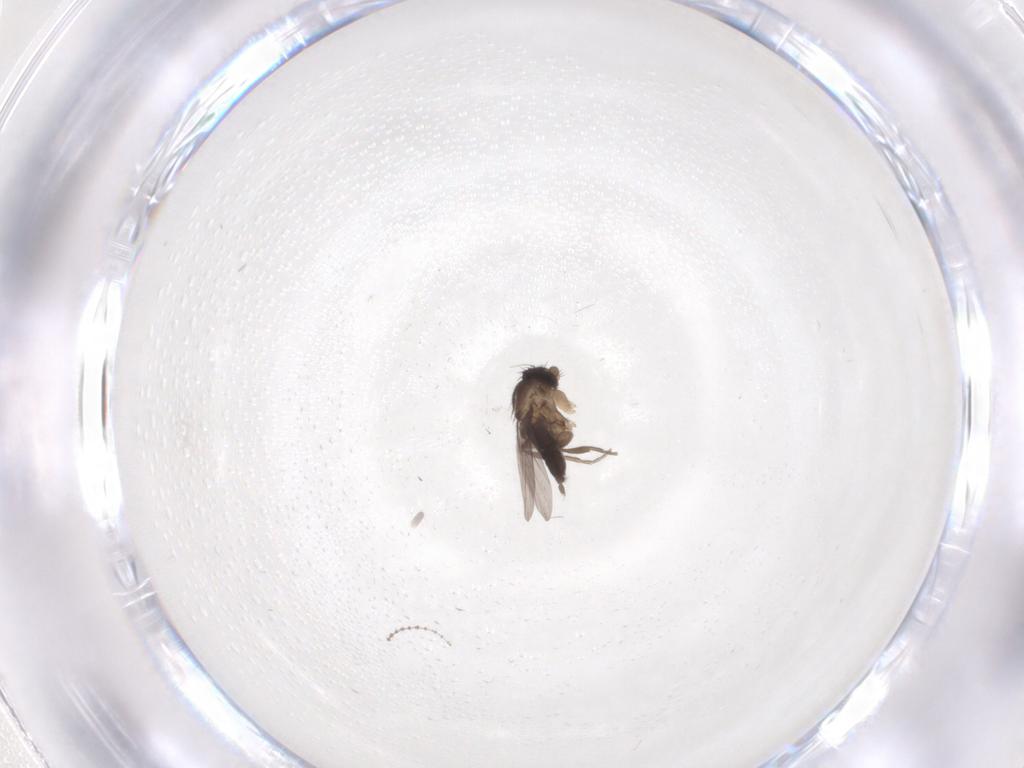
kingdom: Animalia
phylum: Arthropoda
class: Insecta
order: Diptera
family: Phoridae
